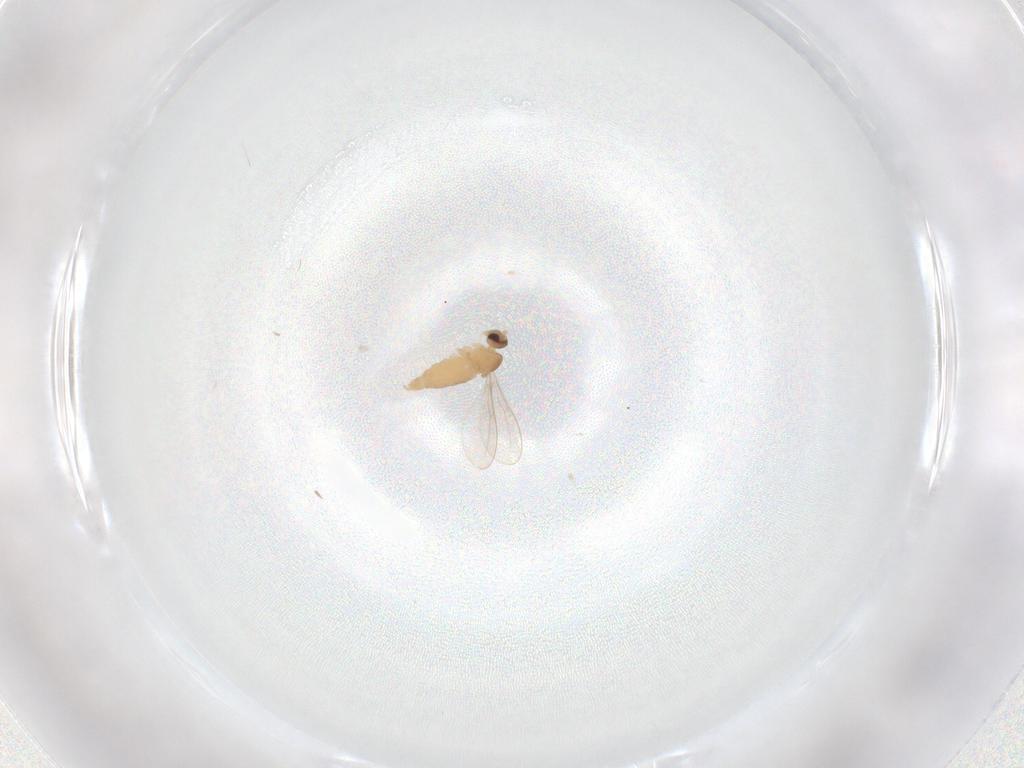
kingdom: Animalia
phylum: Arthropoda
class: Insecta
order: Diptera
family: Cecidomyiidae
